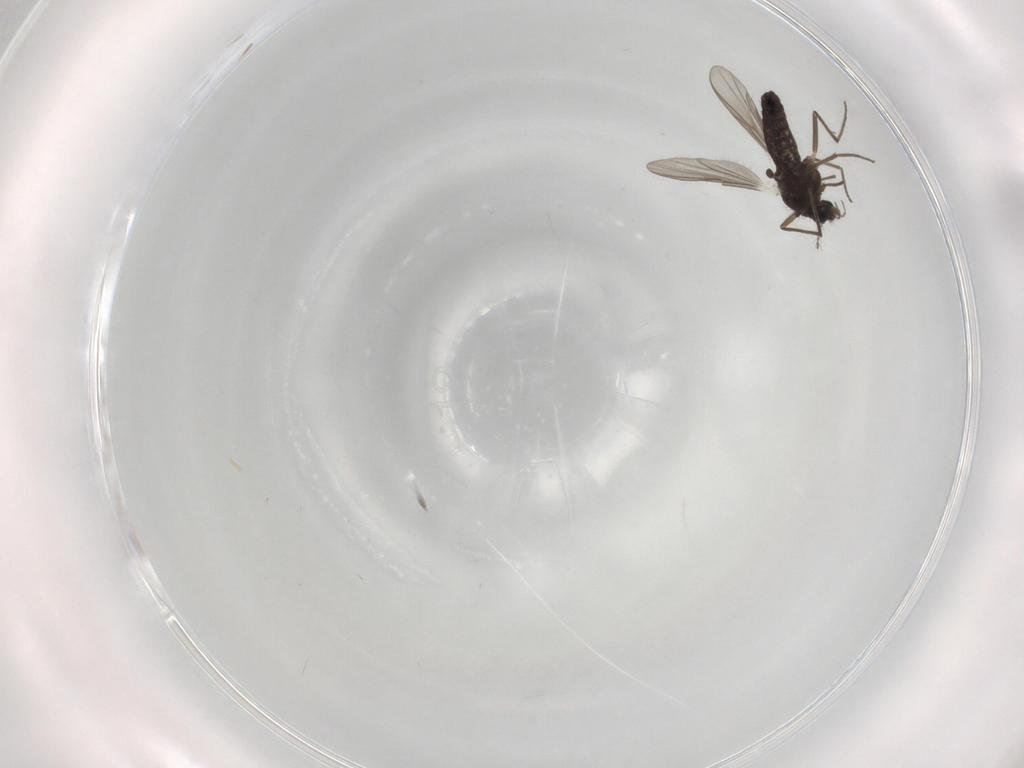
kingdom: Animalia
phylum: Arthropoda
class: Insecta
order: Diptera
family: Chironomidae
